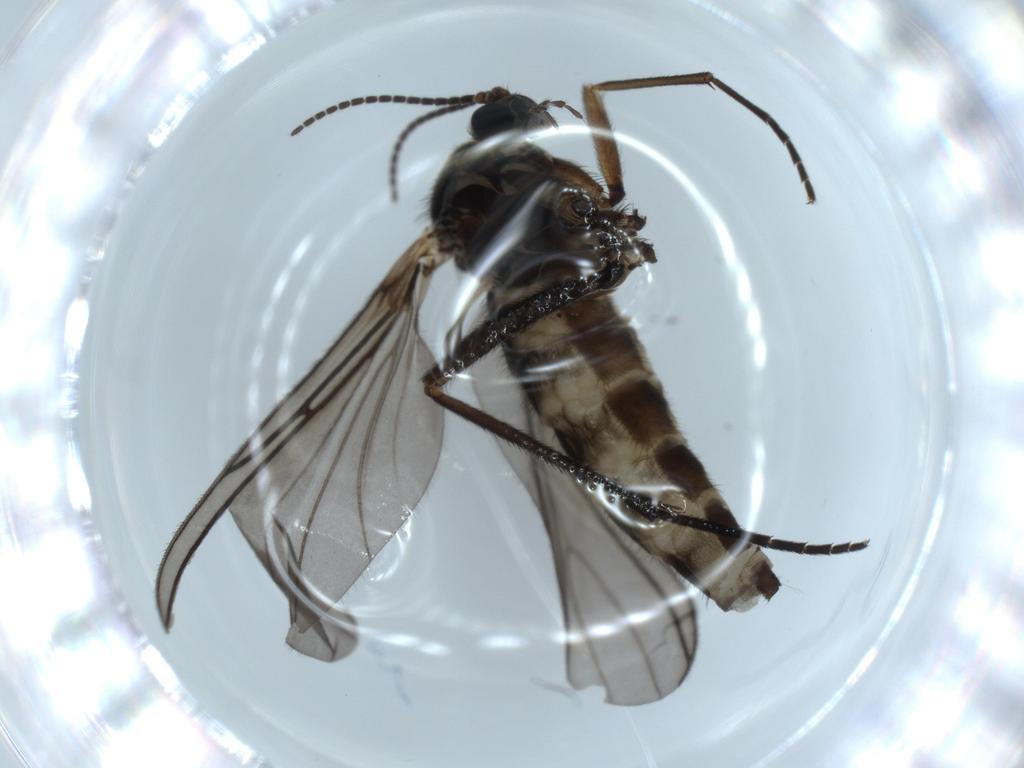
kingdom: Animalia
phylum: Arthropoda
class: Insecta
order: Diptera
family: Sciaridae
